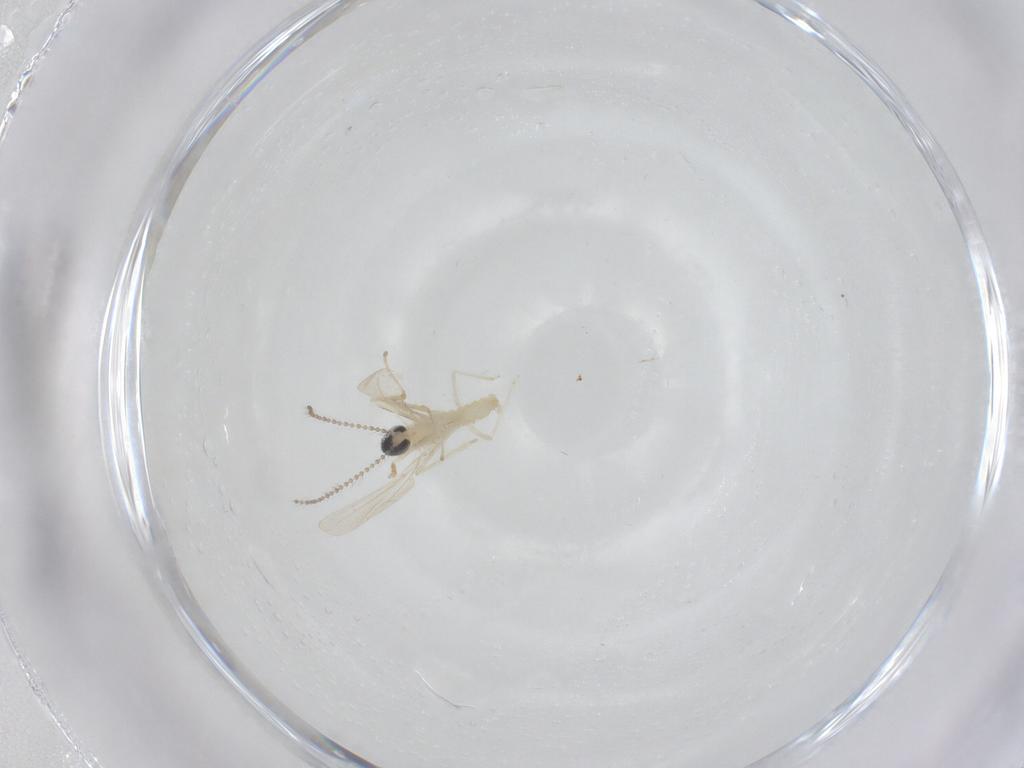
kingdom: Animalia
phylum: Arthropoda
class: Insecta
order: Diptera
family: Cecidomyiidae
